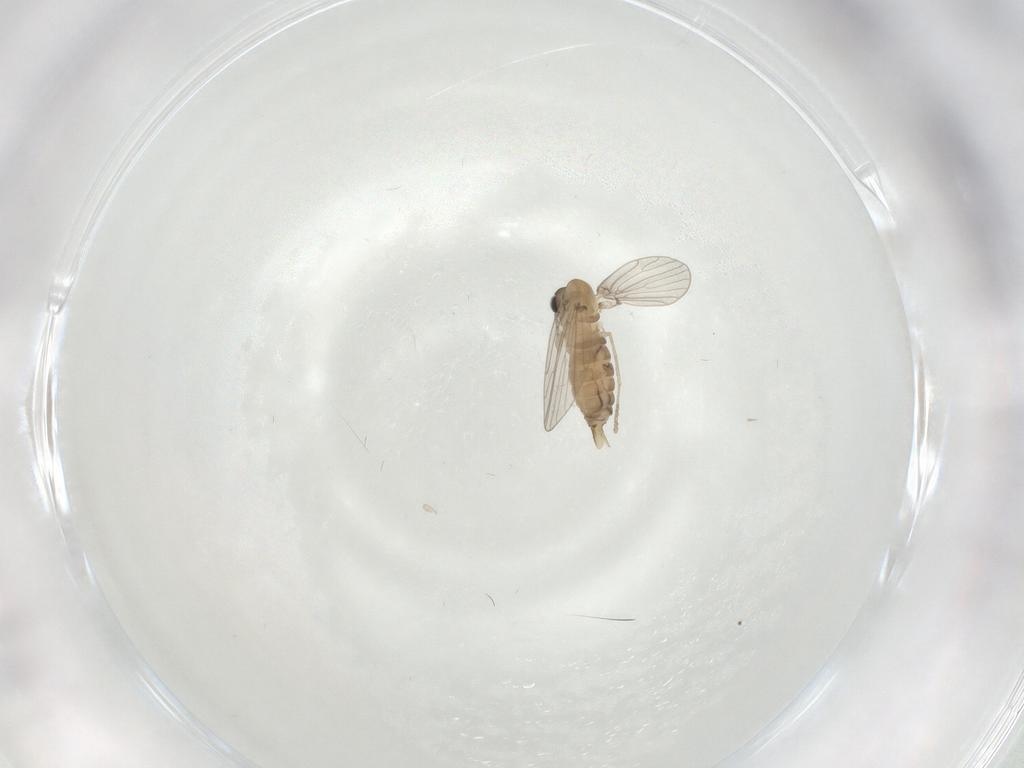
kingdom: Animalia
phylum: Arthropoda
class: Insecta
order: Diptera
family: Psychodidae
